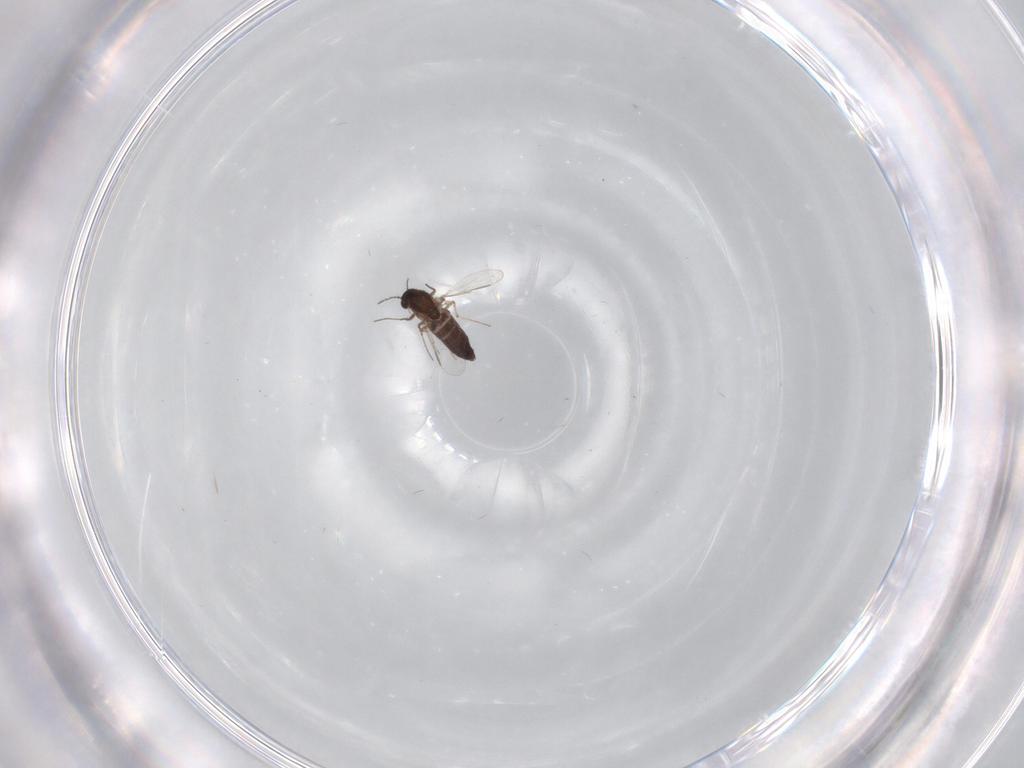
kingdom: Animalia
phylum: Arthropoda
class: Insecta
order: Diptera
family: Chironomidae
